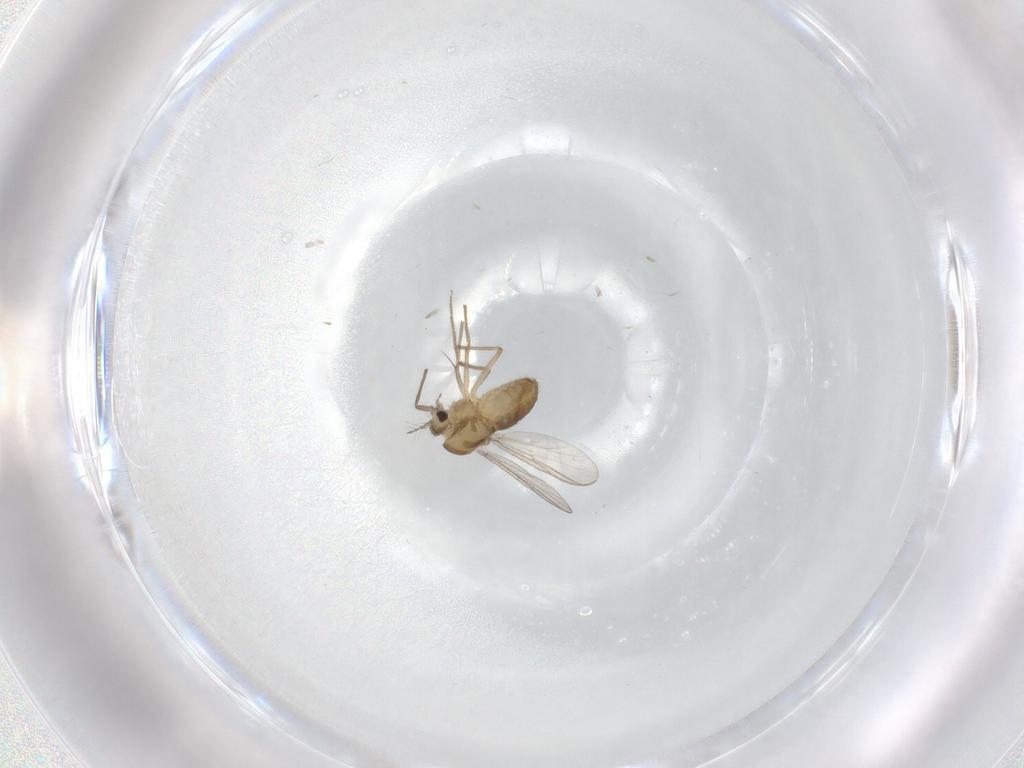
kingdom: Animalia
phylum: Arthropoda
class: Insecta
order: Diptera
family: Chironomidae
